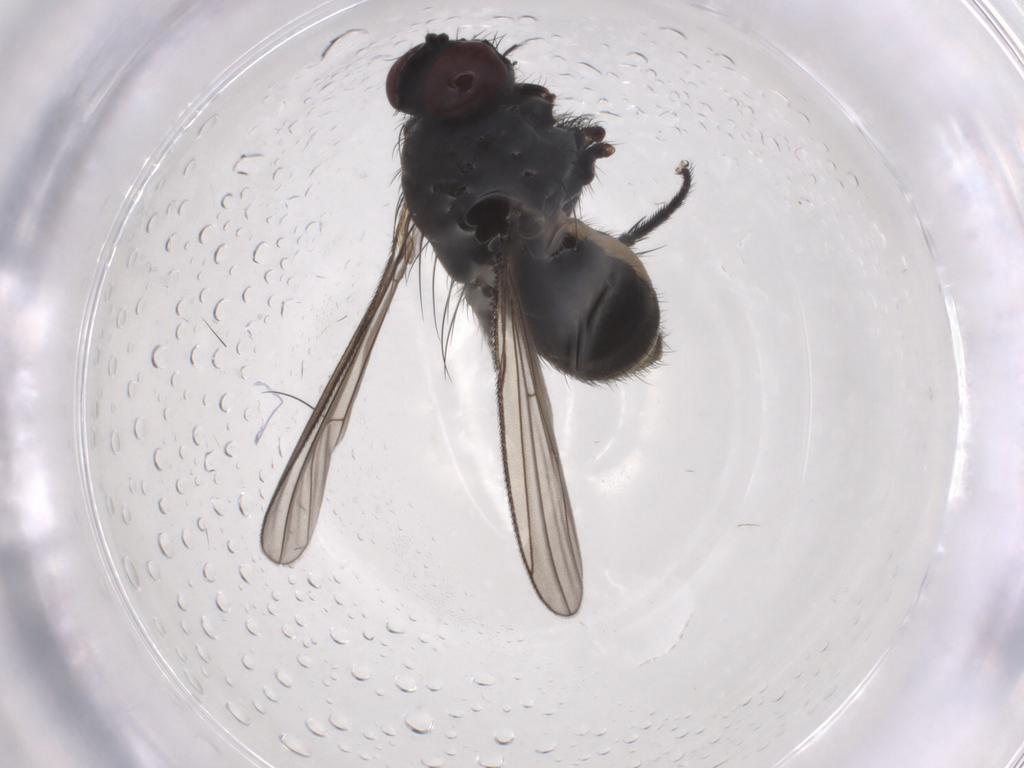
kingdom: Animalia
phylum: Arthropoda
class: Insecta
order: Diptera
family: Muscidae
